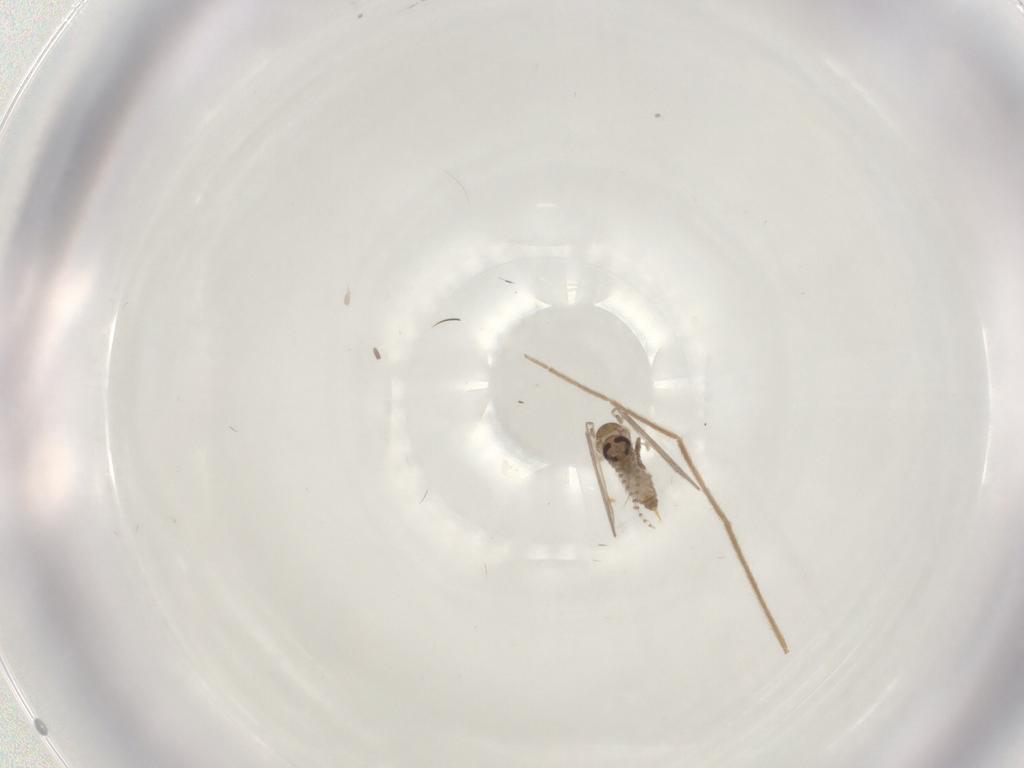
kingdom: Animalia
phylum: Arthropoda
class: Insecta
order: Diptera
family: Psychodidae
